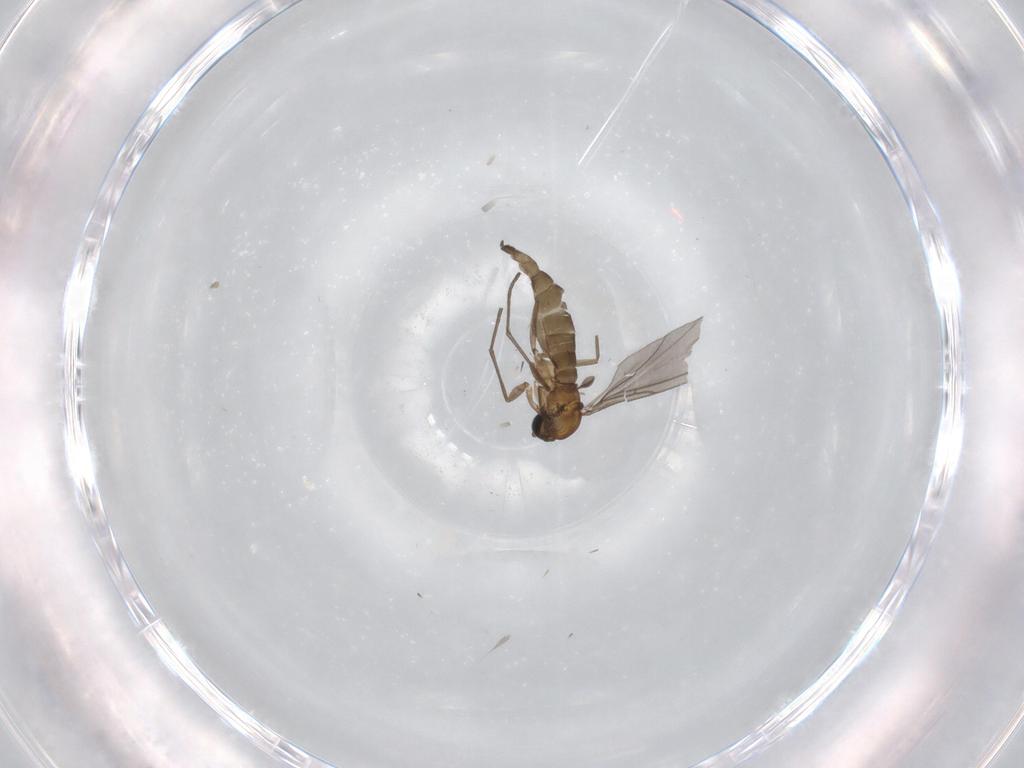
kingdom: Animalia
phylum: Arthropoda
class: Insecta
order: Diptera
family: Sciaridae
